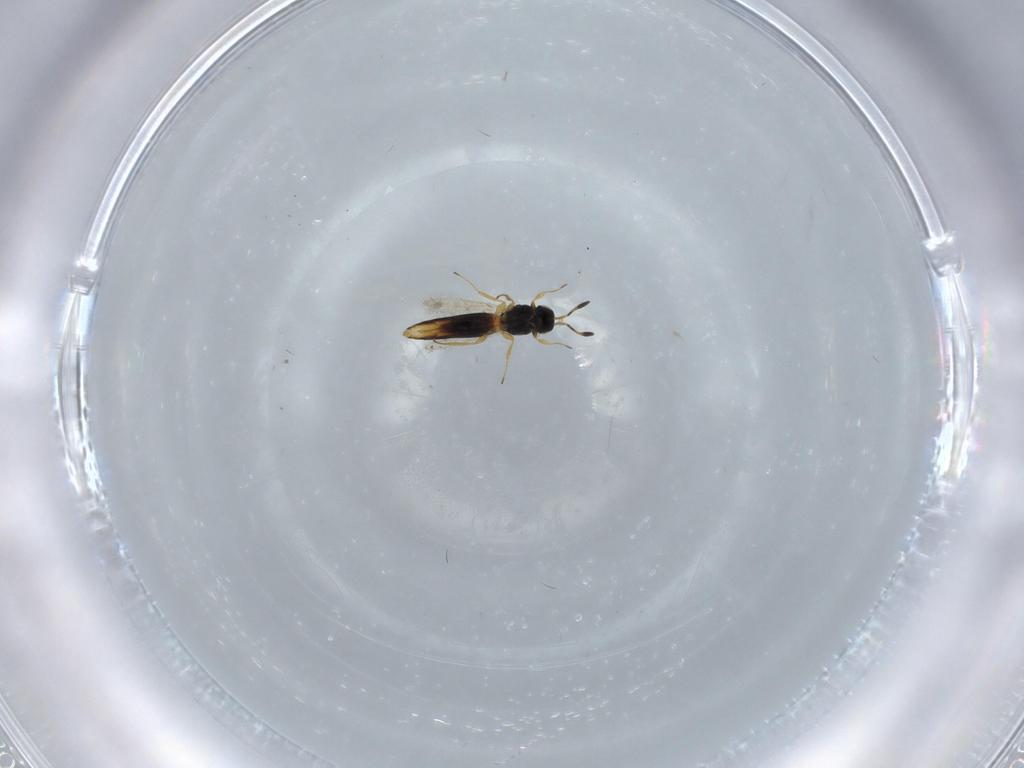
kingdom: Animalia
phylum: Arthropoda
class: Insecta
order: Hymenoptera
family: Scelionidae
